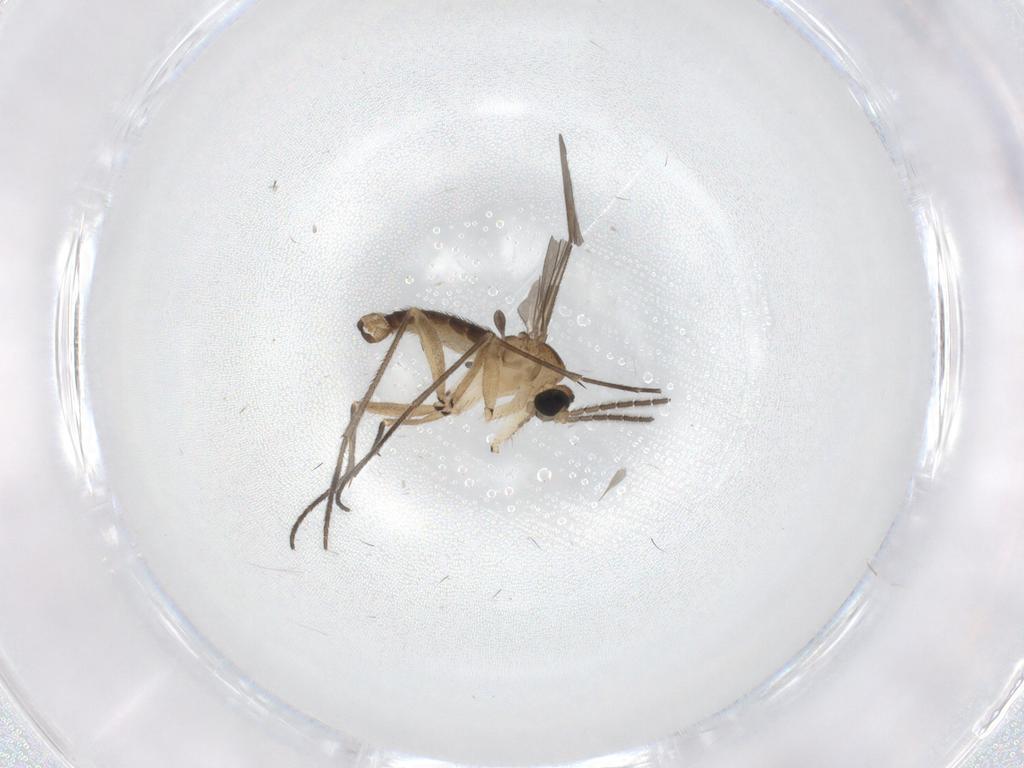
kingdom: Animalia
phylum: Arthropoda
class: Insecta
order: Diptera
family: Sciaridae
